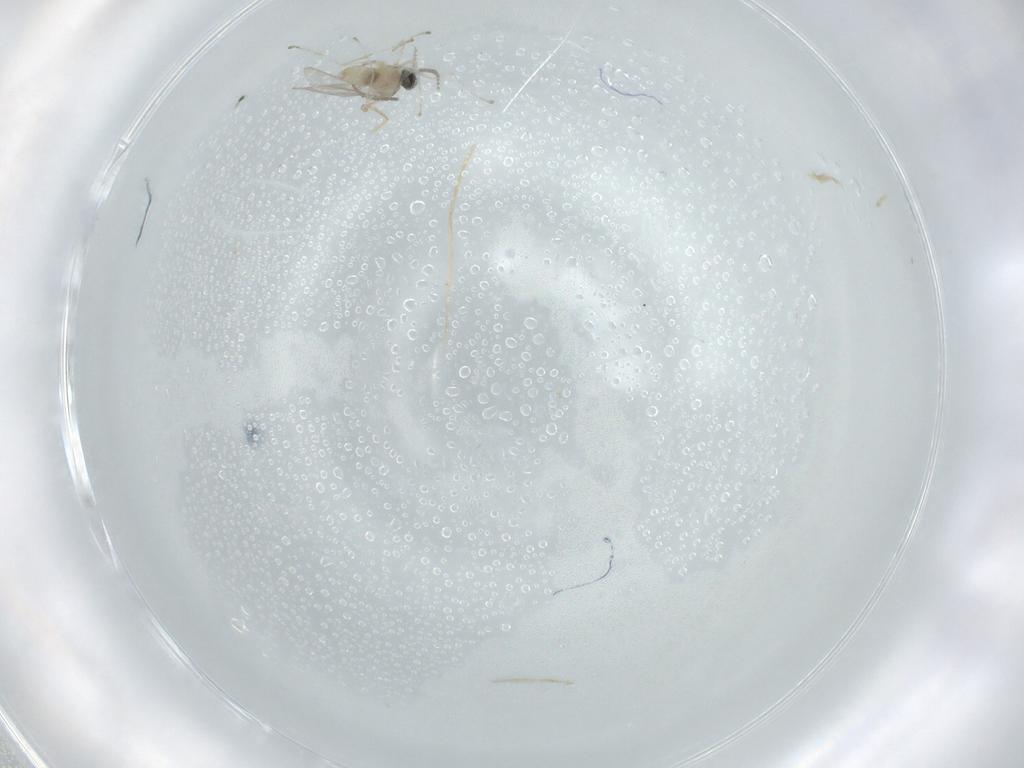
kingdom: Animalia
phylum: Arthropoda
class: Insecta
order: Diptera
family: Cecidomyiidae
